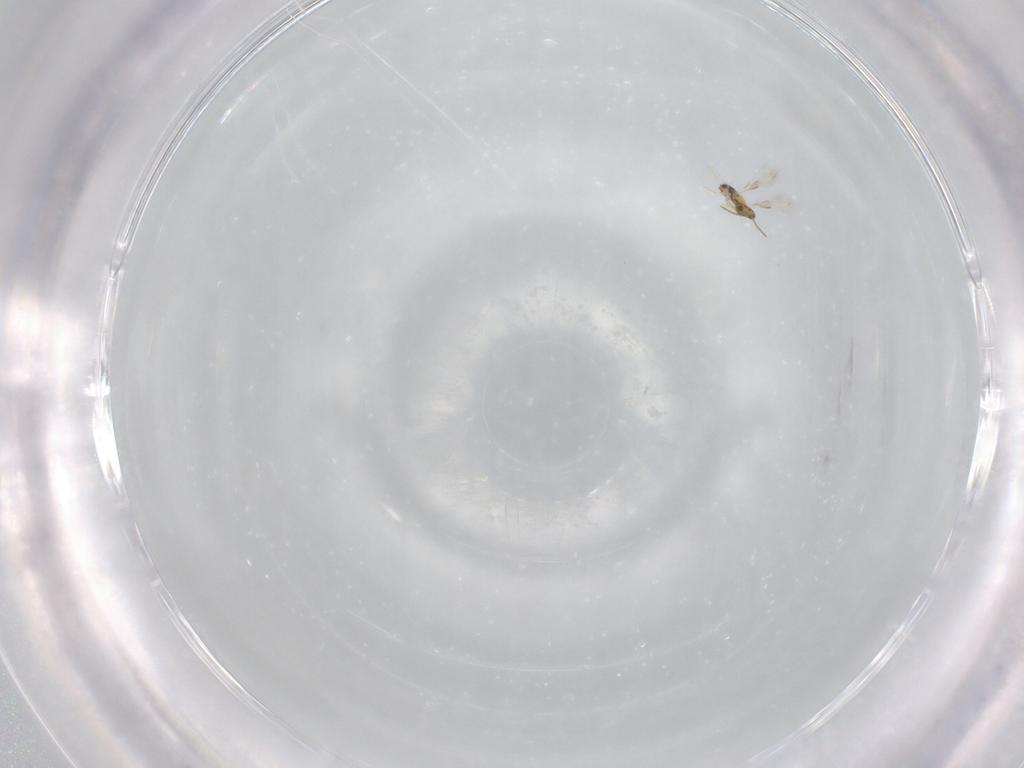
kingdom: Animalia
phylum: Arthropoda
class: Insecta
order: Hymenoptera
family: Aphelinidae
